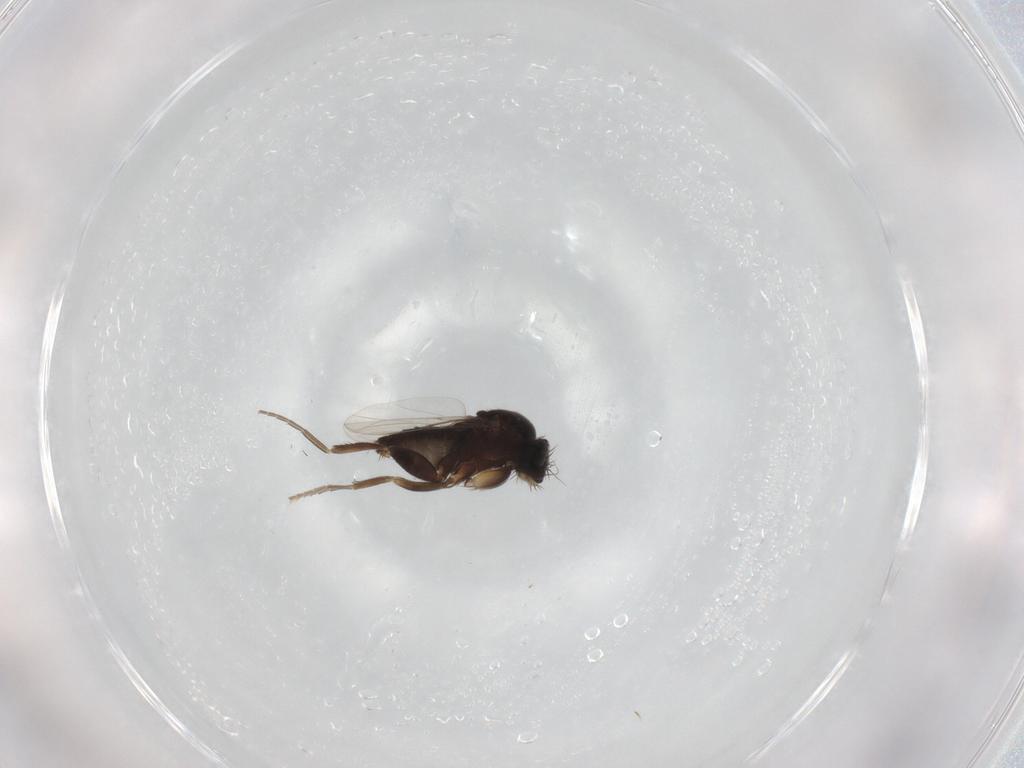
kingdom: Animalia
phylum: Arthropoda
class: Insecta
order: Diptera
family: Phoridae
